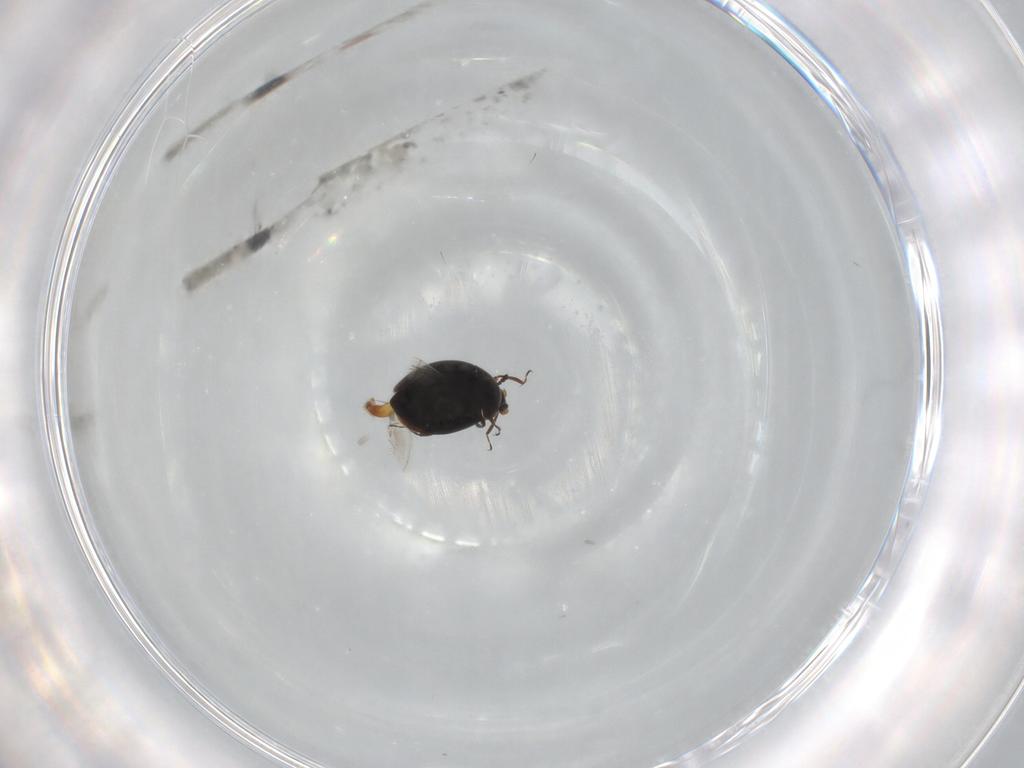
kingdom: Animalia
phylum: Arthropoda
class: Insecta
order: Coleoptera
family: Corylophidae
